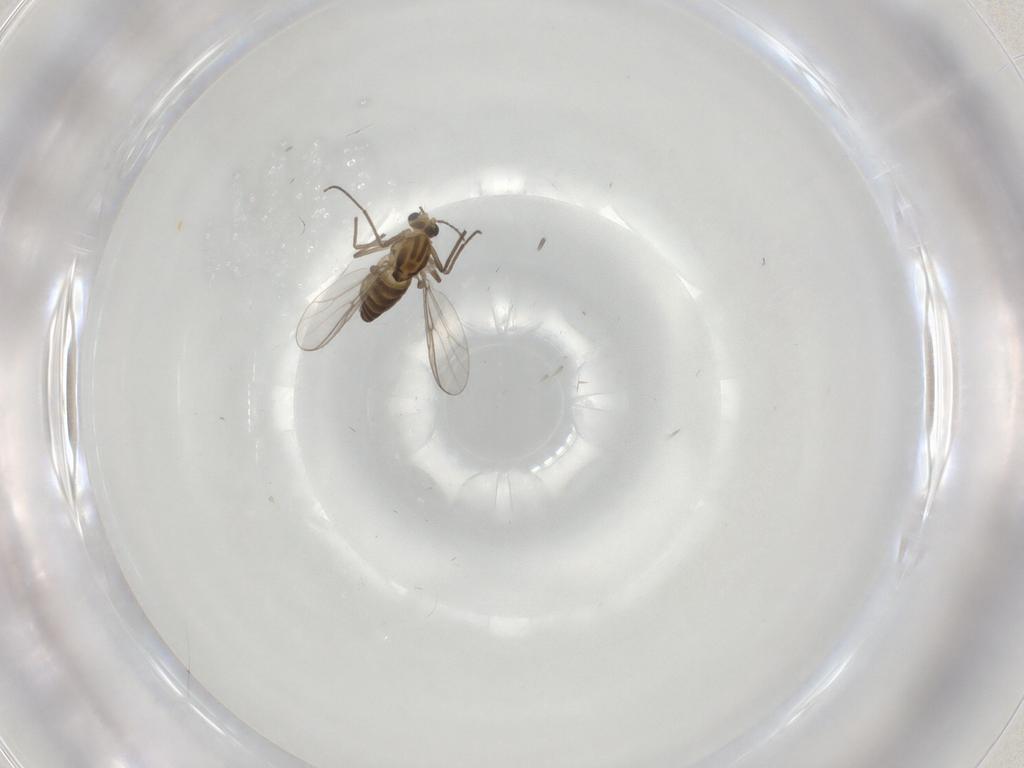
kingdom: Animalia
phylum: Arthropoda
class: Insecta
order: Diptera
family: Chironomidae
